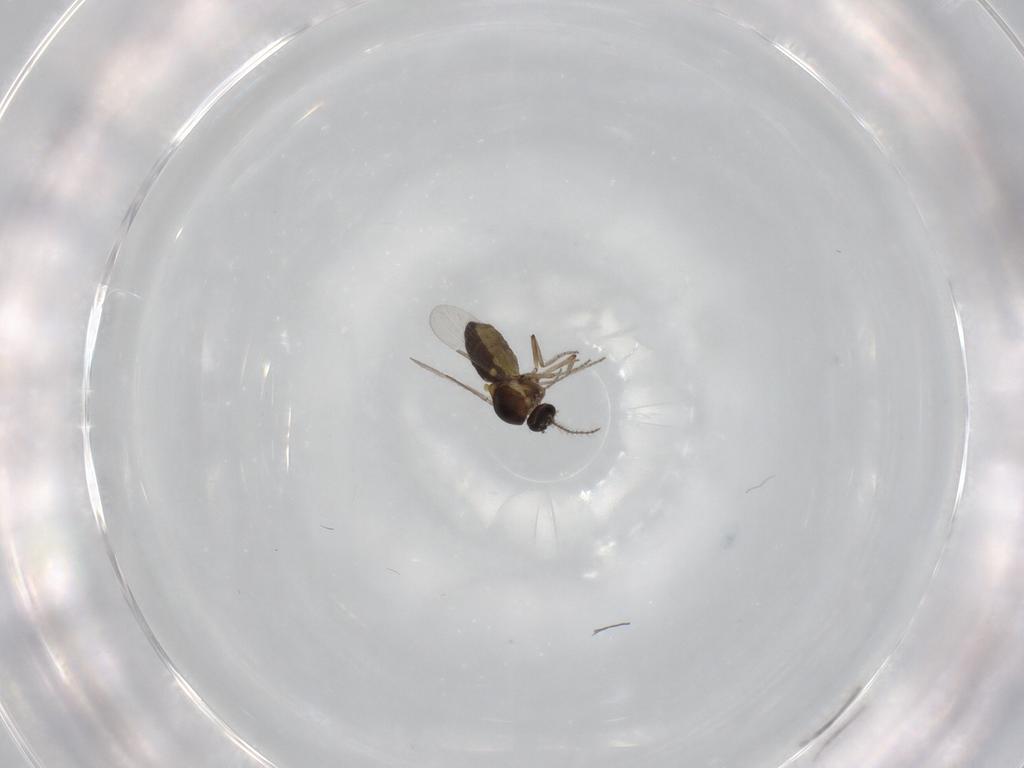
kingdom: Animalia
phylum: Arthropoda
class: Insecta
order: Diptera
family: Ceratopogonidae
